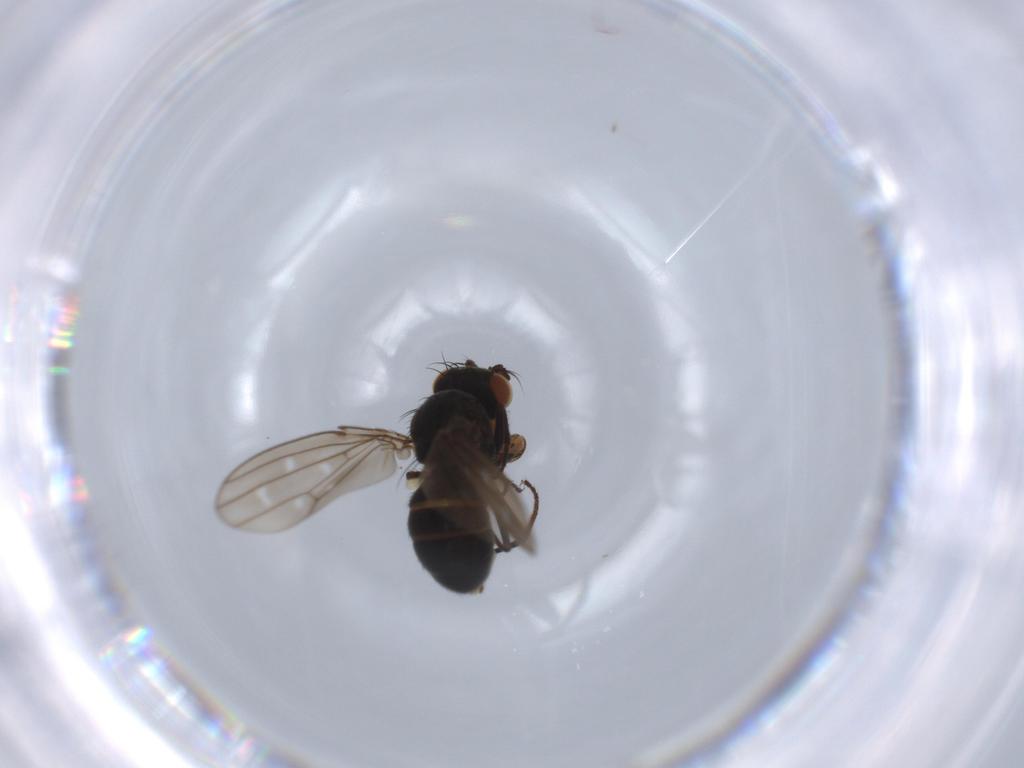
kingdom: Animalia
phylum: Arthropoda
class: Insecta
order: Diptera
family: Ephydridae
